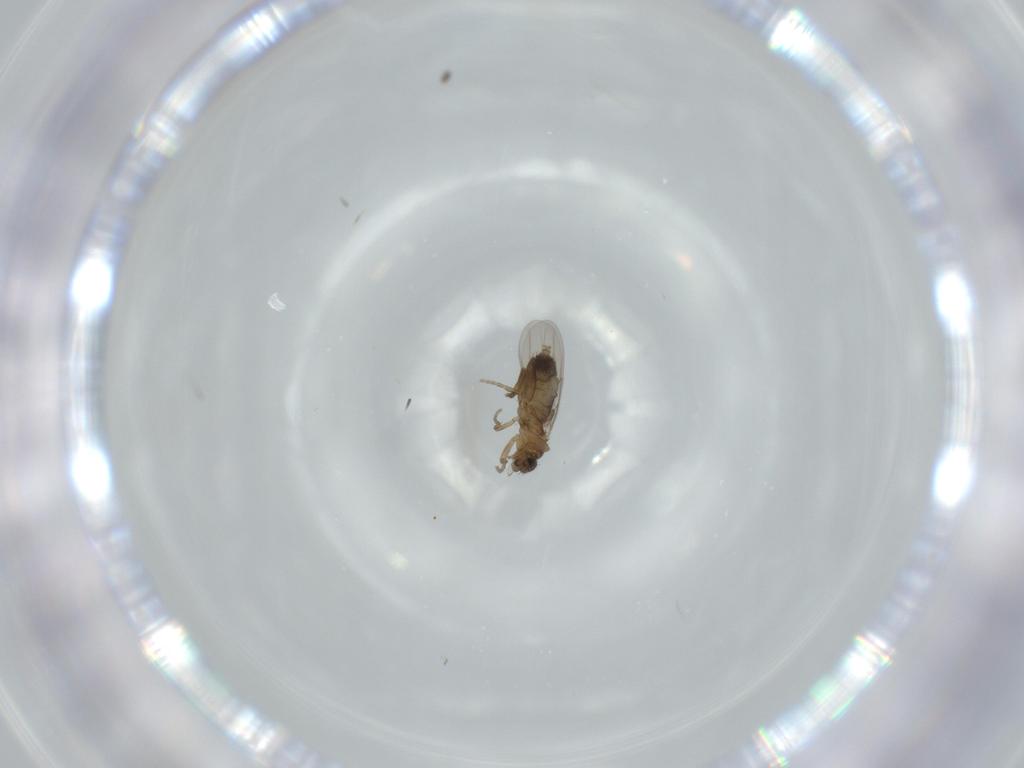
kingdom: Animalia
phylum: Arthropoda
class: Insecta
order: Diptera
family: Phoridae
